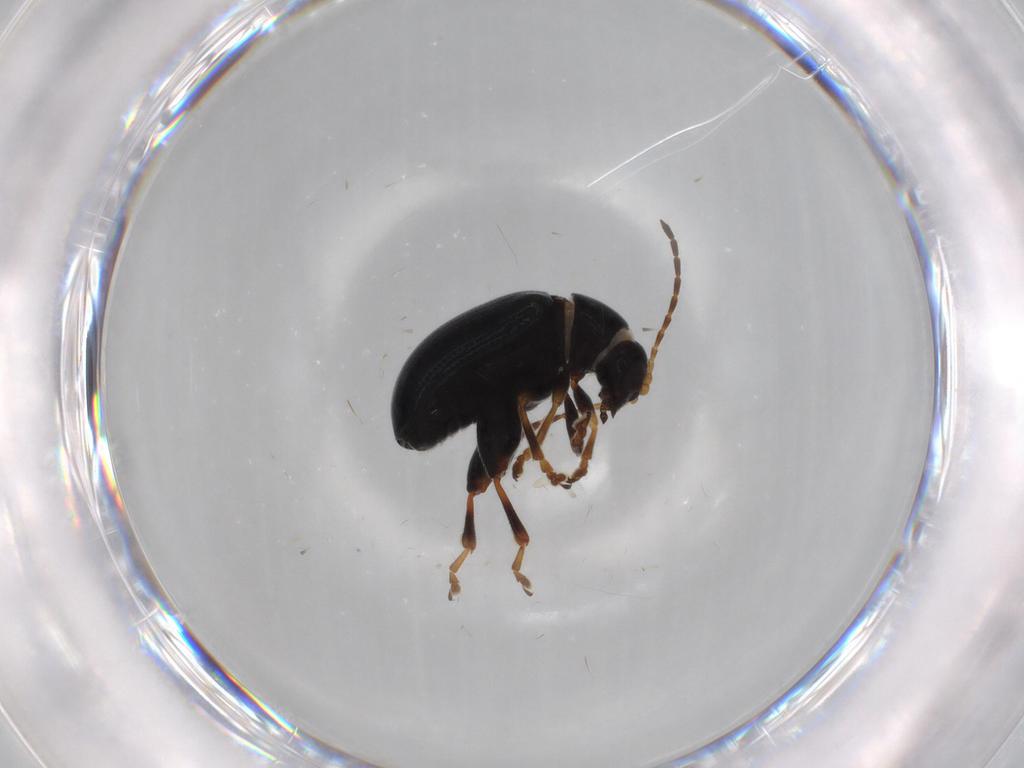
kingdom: Animalia
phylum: Arthropoda
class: Insecta
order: Coleoptera
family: Chrysomelidae
